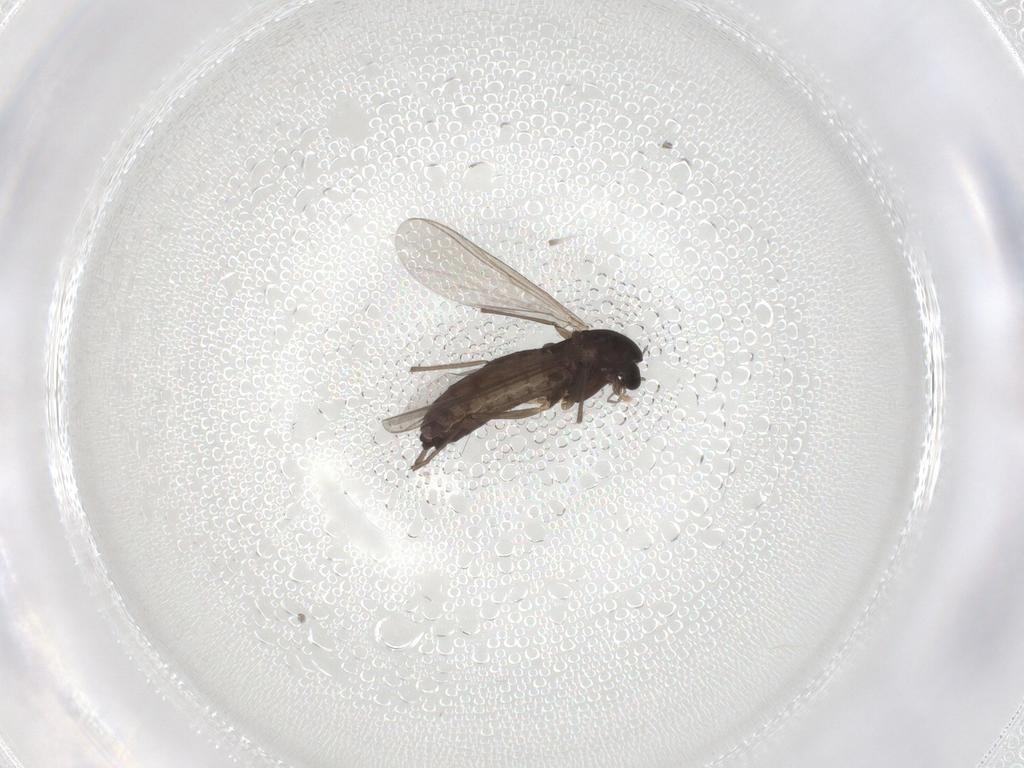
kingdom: Animalia
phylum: Arthropoda
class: Insecta
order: Diptera
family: Chironomidae
